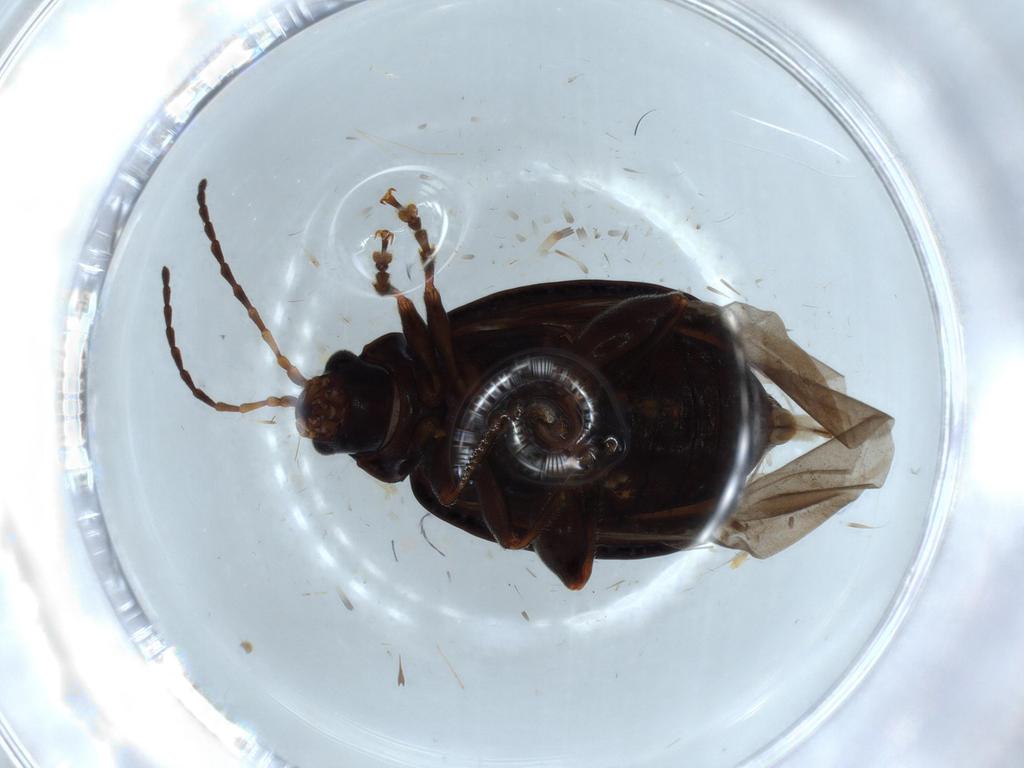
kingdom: Animalia
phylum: Arthropoda
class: Insecta
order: Coleoptera
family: Chrysomelidae
